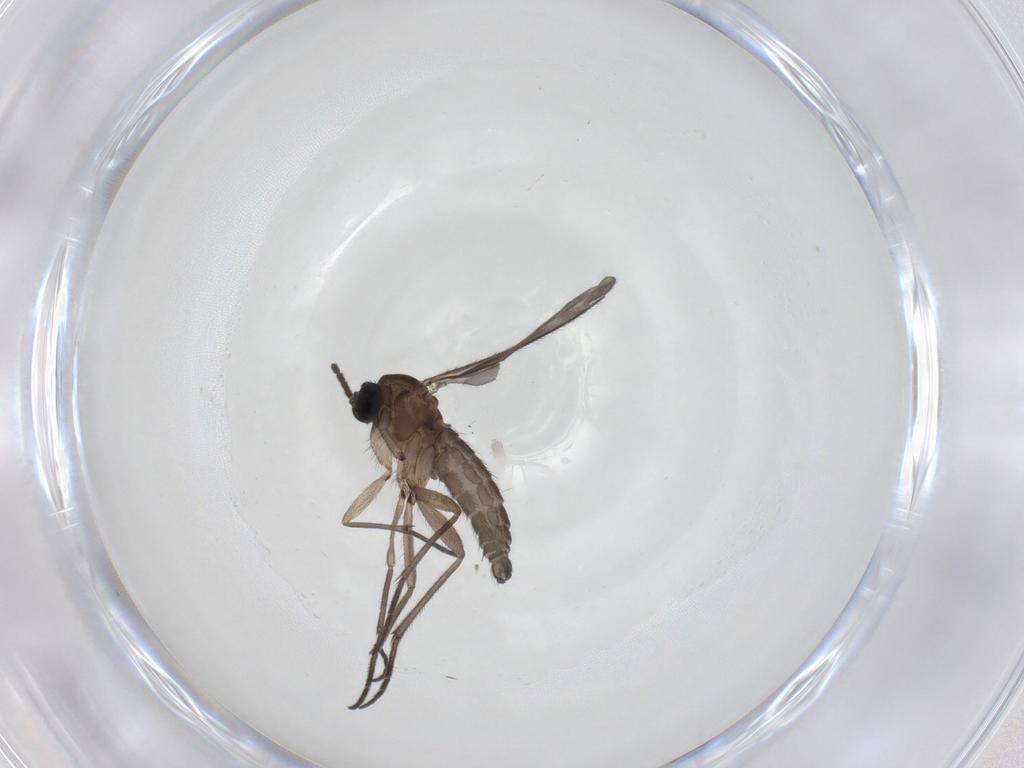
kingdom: Animalia
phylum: Arthropoda
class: Insecta
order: Diptera
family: Sciaridae
